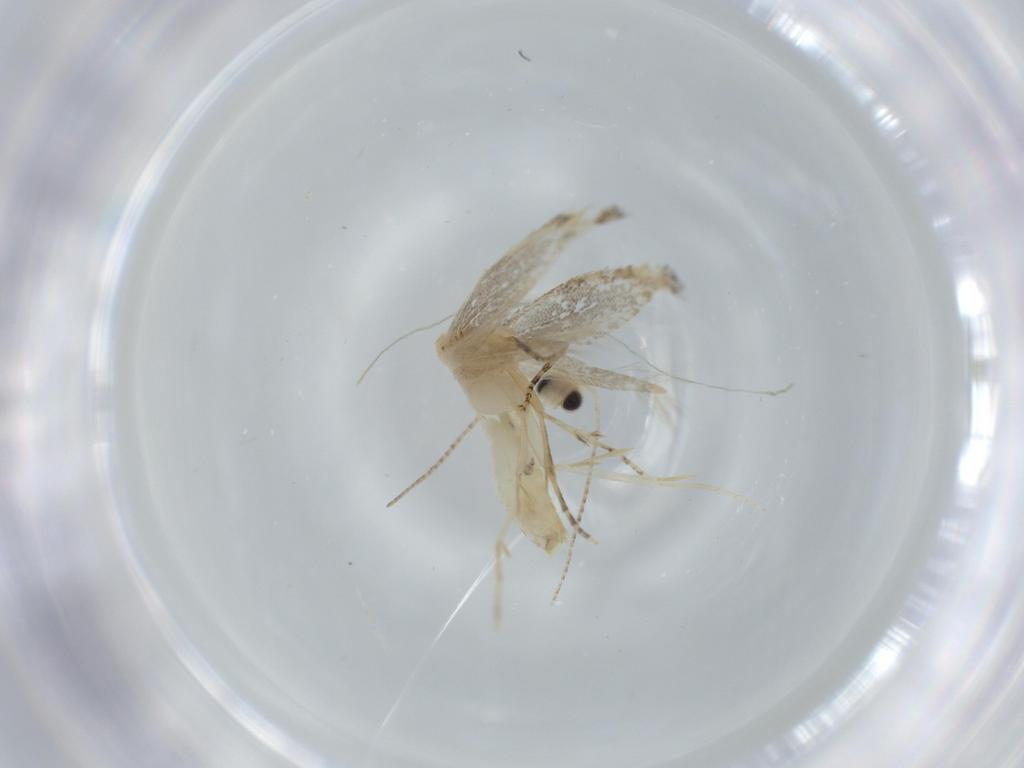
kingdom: Animalia
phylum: Arthropoda
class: Insecta
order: Lepidoptera
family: Bucculatricidae
